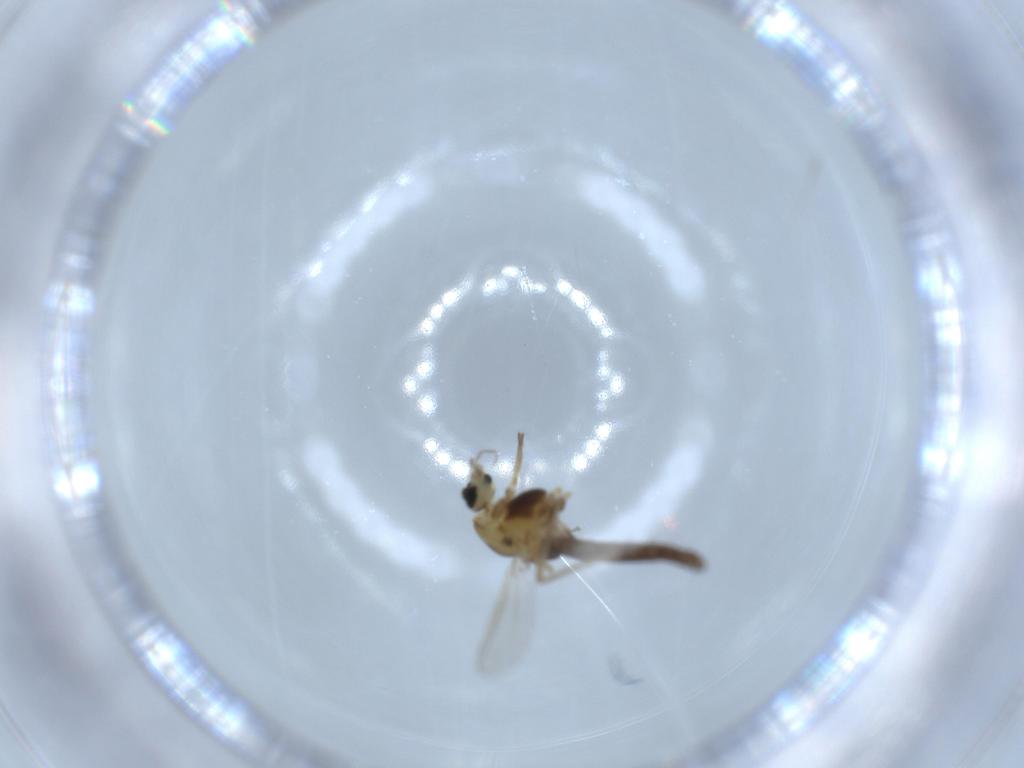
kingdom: Animalia
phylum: Arthropoda
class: Insecta
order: Diptera
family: Chironomidae
